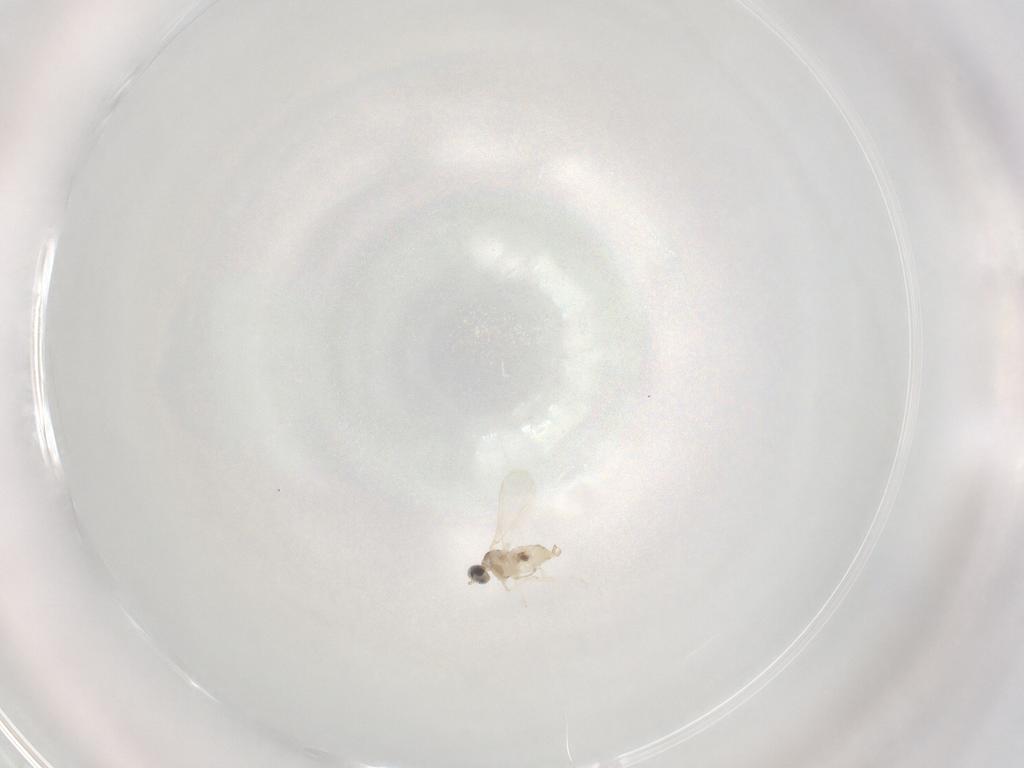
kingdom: Animalia
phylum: Arthropoda
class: Insecta
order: Diptera
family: Cecidomyiidae
